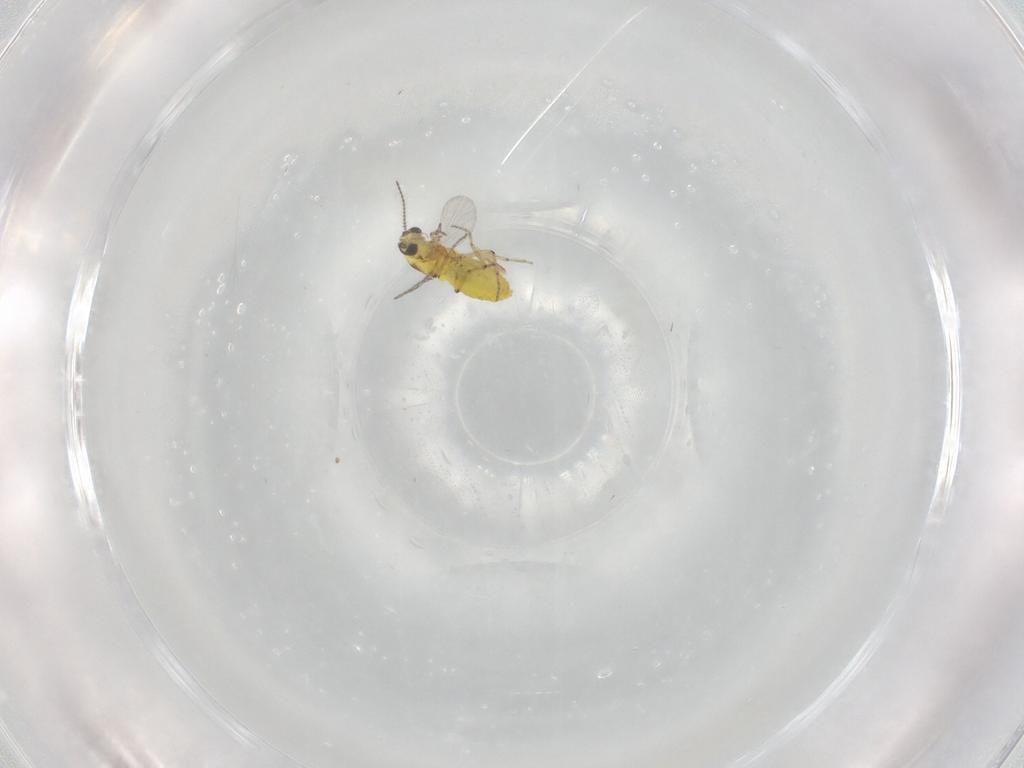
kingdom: Animalia
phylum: Arthropoda
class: Insecta
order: Diptera
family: Ceratopogonidae
